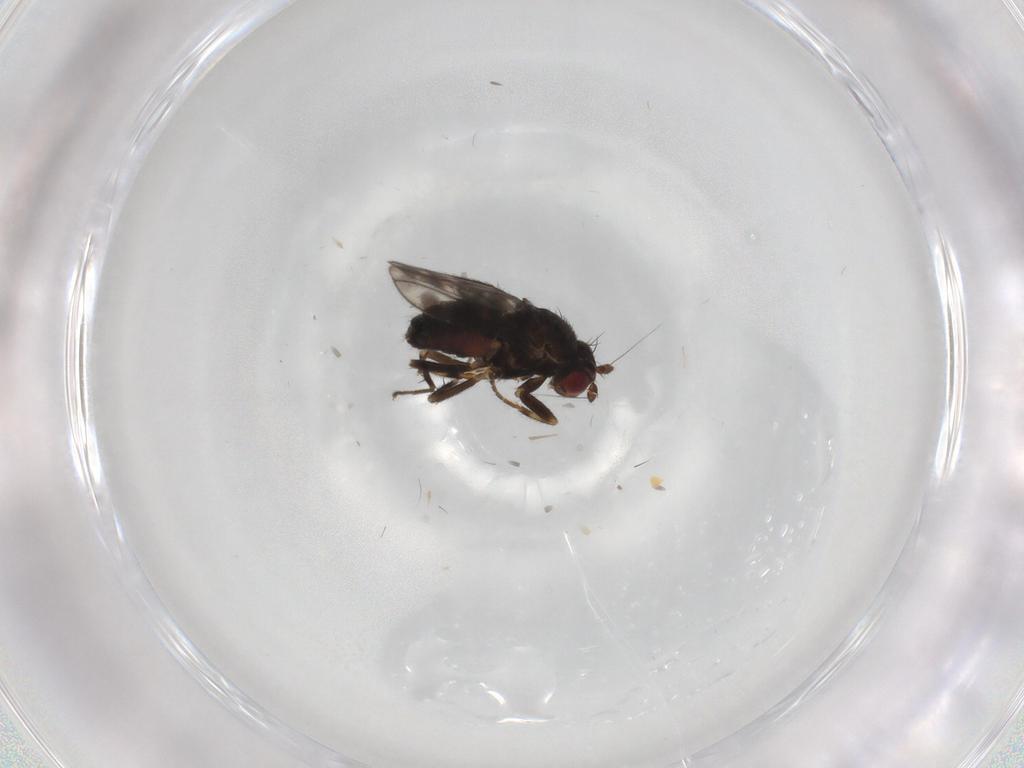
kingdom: Animalia
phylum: Arthropoda
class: Insecta
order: Diptera
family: Sphaeroceridae
